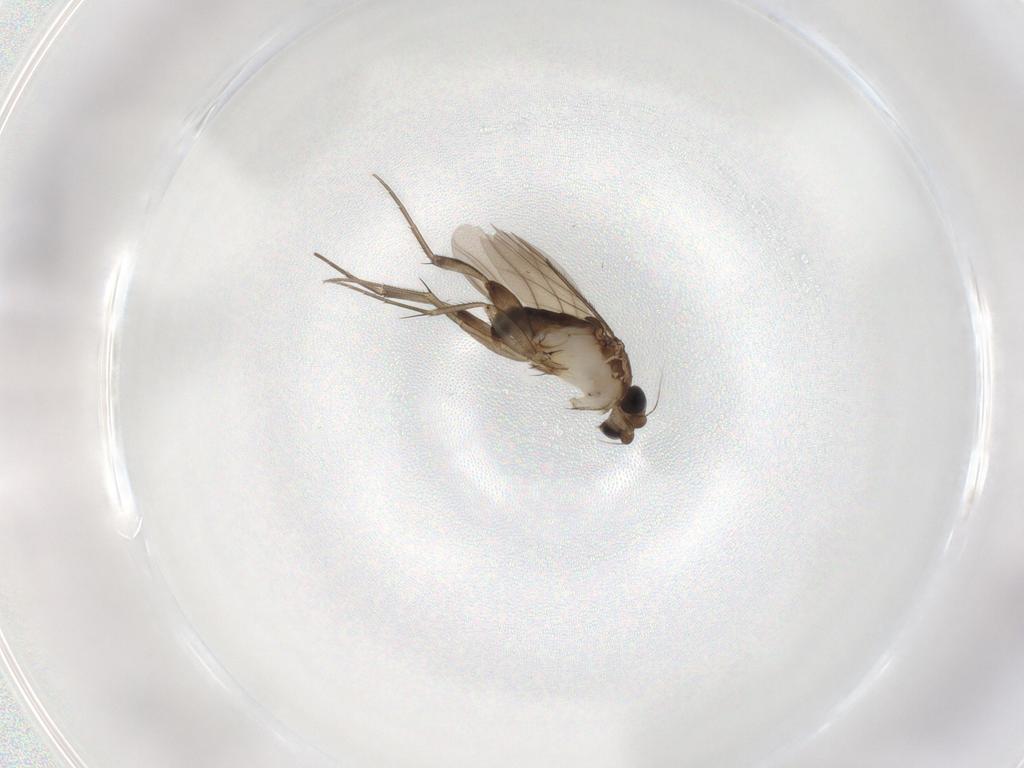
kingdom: Animalia
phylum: Arthropoda
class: Insecta
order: Diptera
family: Phoridae
